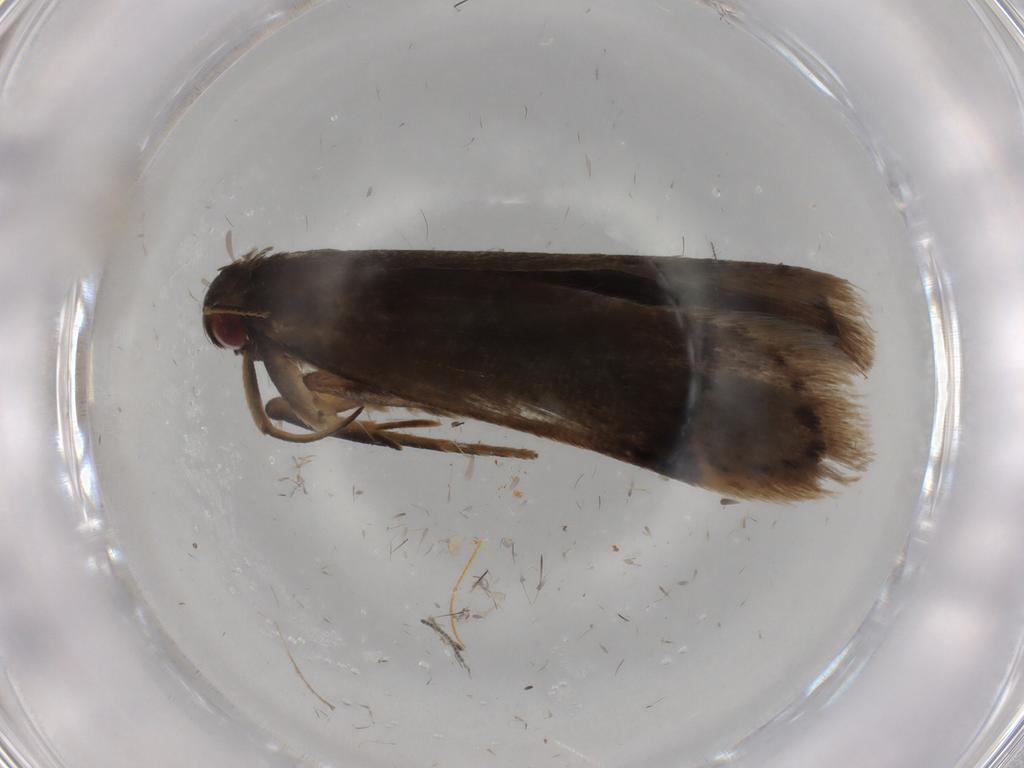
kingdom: Animalia
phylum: Arthropoda
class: Insecta
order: Lepidoptera
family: Gelechiidae
